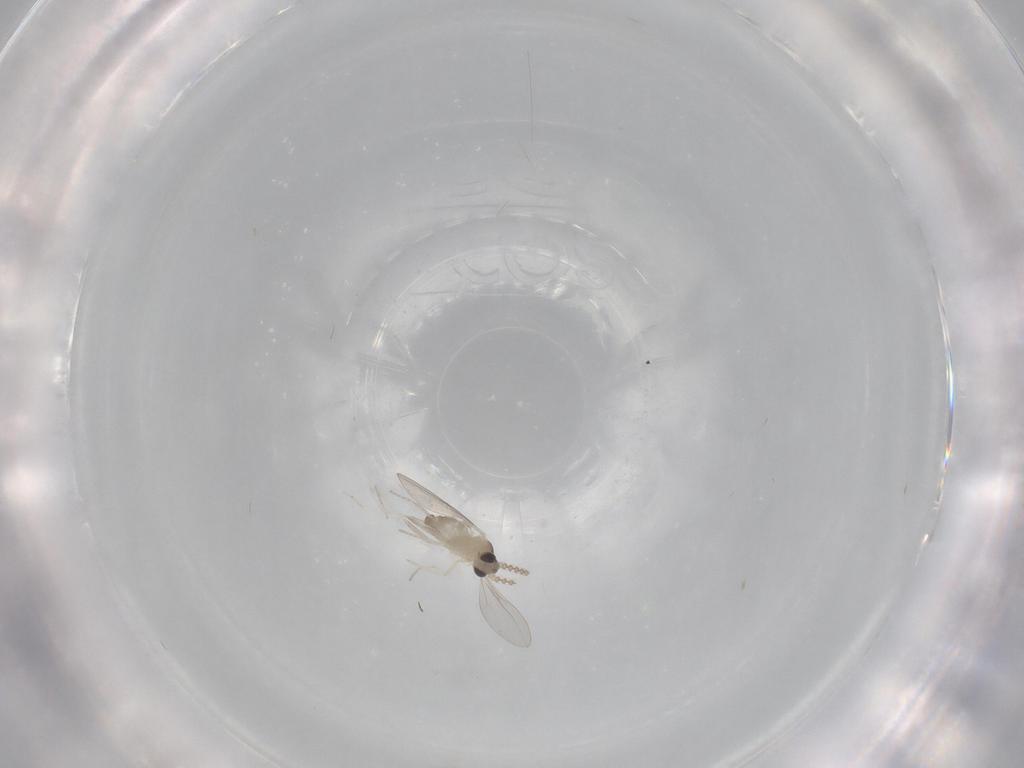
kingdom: Animalia
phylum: Arthropoda
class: Insecta
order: Diptera
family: Cecidomyiidae
